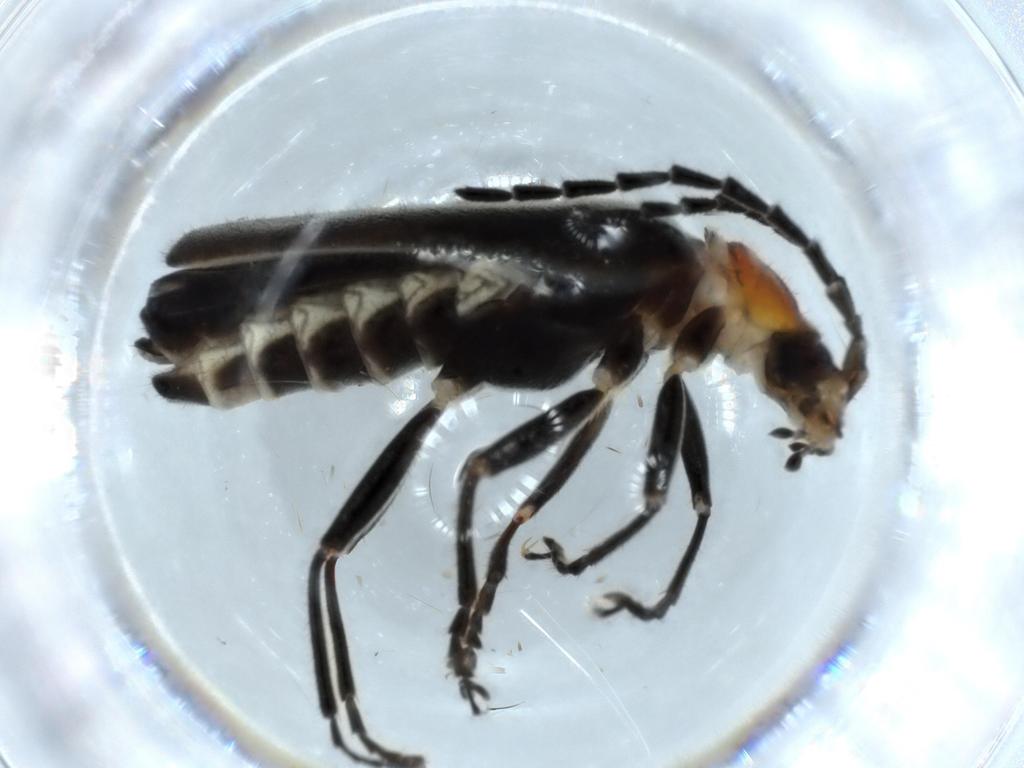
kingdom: Animalia
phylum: Arthropoda
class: Insecta
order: Coleoptera
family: Cantharidae
